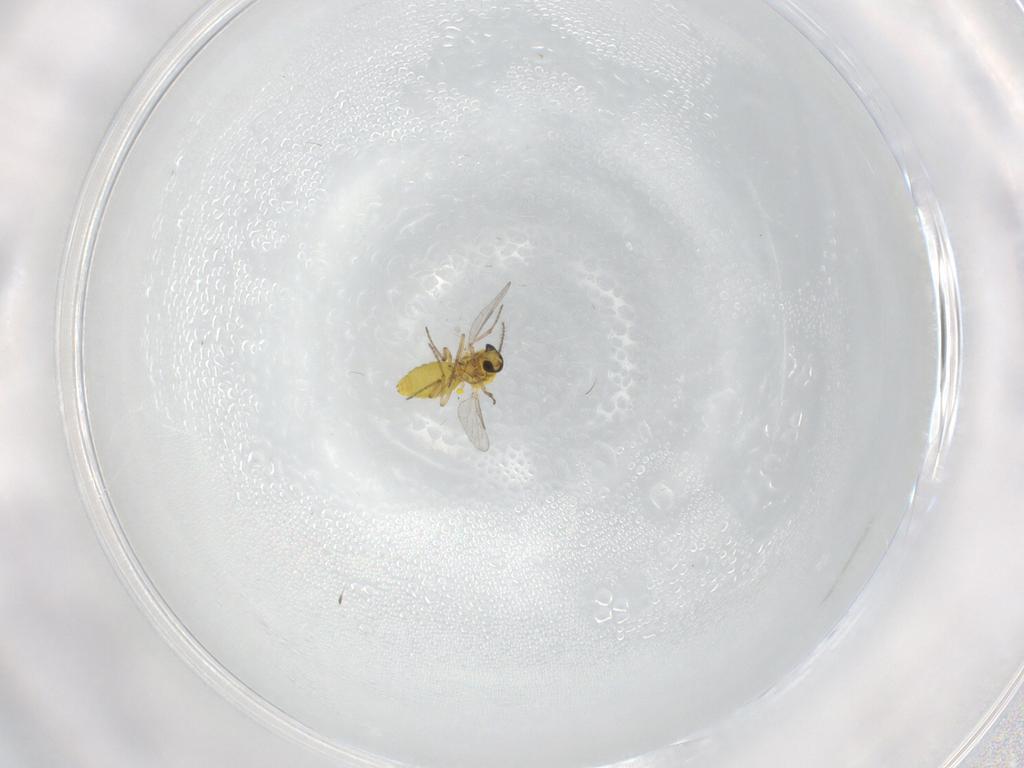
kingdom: Animalia
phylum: Arthropoda
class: Insecta
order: Diptera
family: Ceratopogonidae
